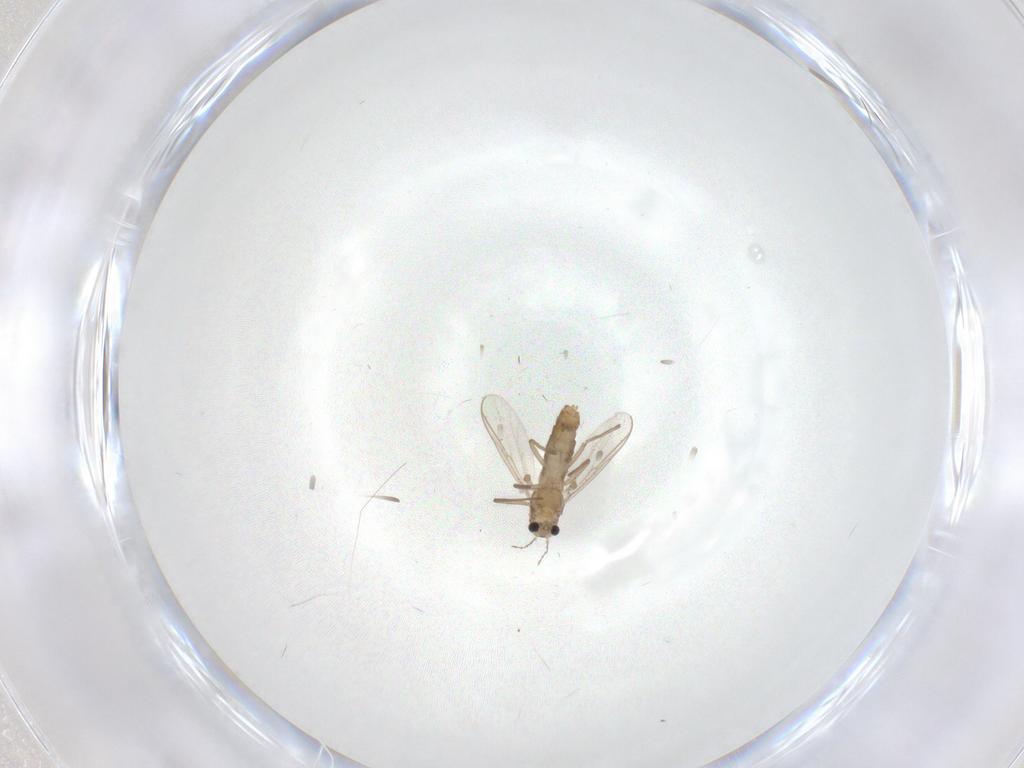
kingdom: Animalia
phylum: Arthropoda
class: Insecta
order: Diptera
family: Chironomidae
